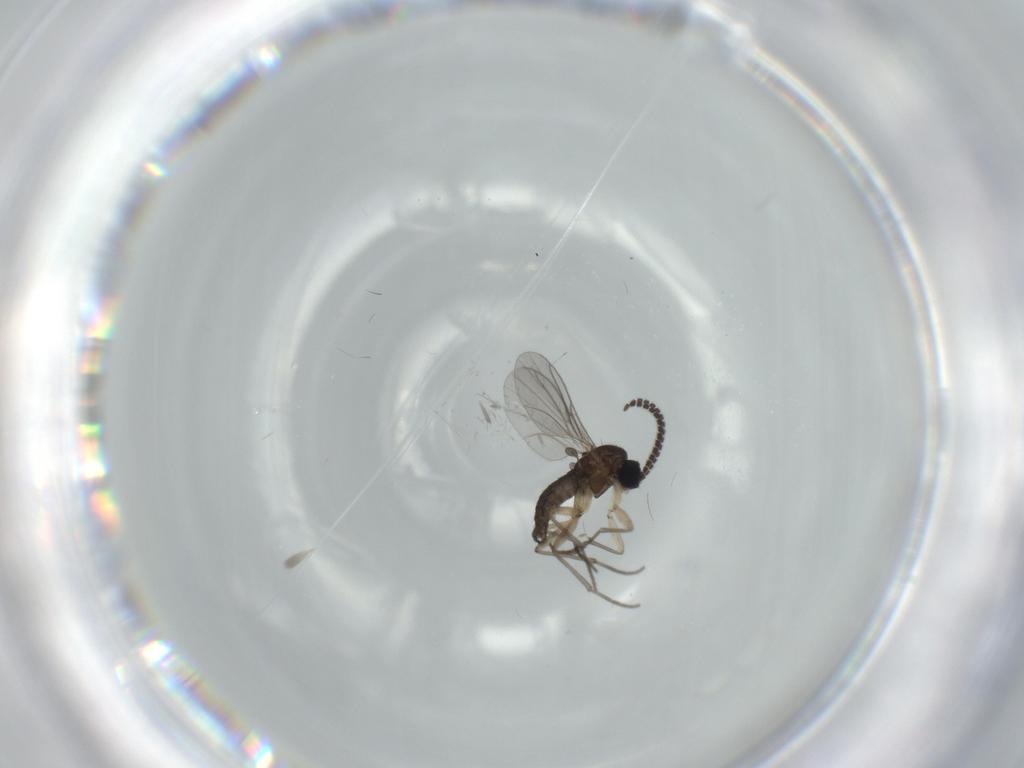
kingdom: Animalia
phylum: Arthropoda
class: Insecta
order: Diptera
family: Sciaridae
